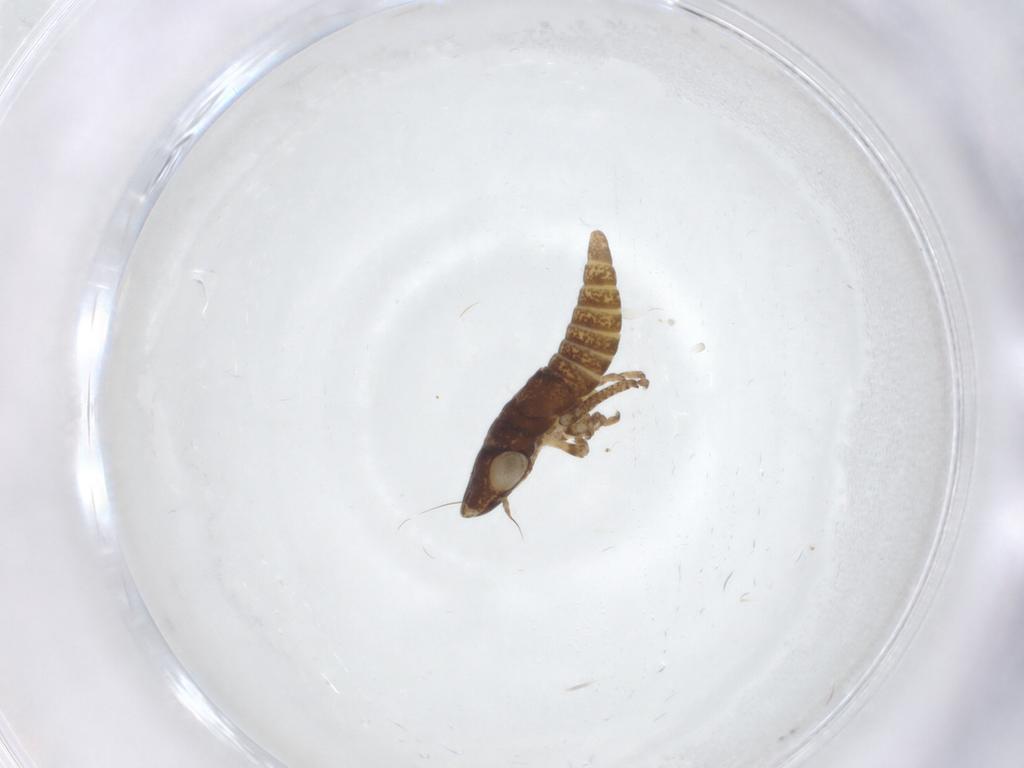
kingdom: Animalia
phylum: Arthropoda
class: Insecta
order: Hemiptera
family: Cicadellidae
